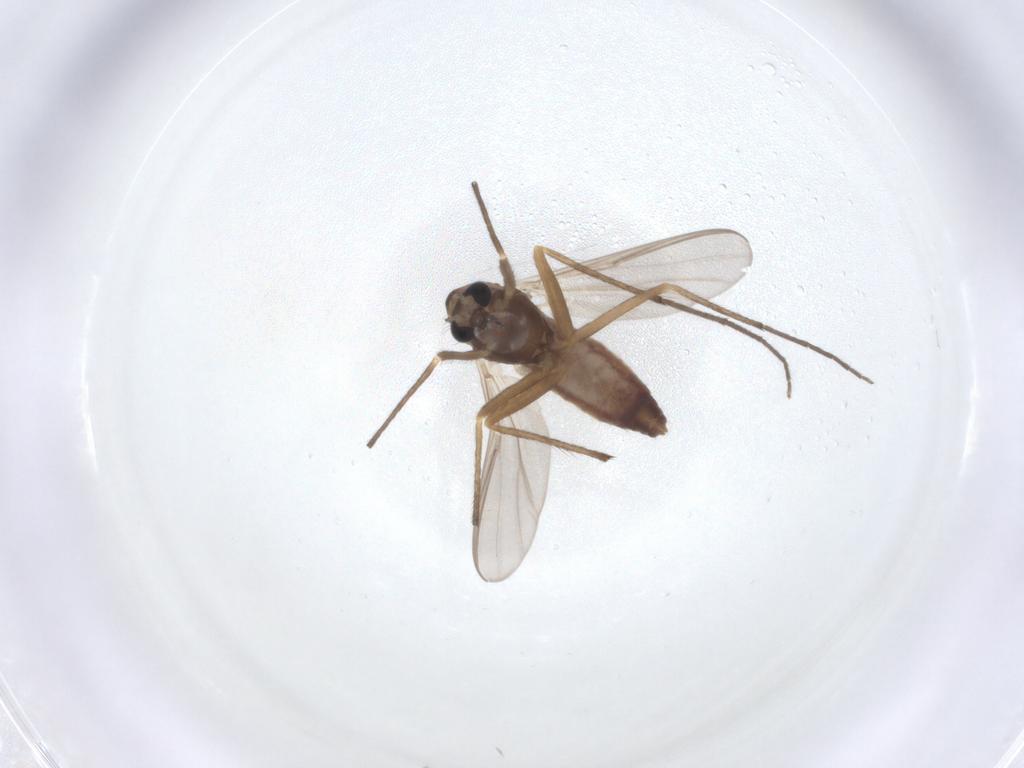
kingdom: Animalia
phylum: Arthropoda
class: Insecta
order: Diptera
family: Chironomidae
